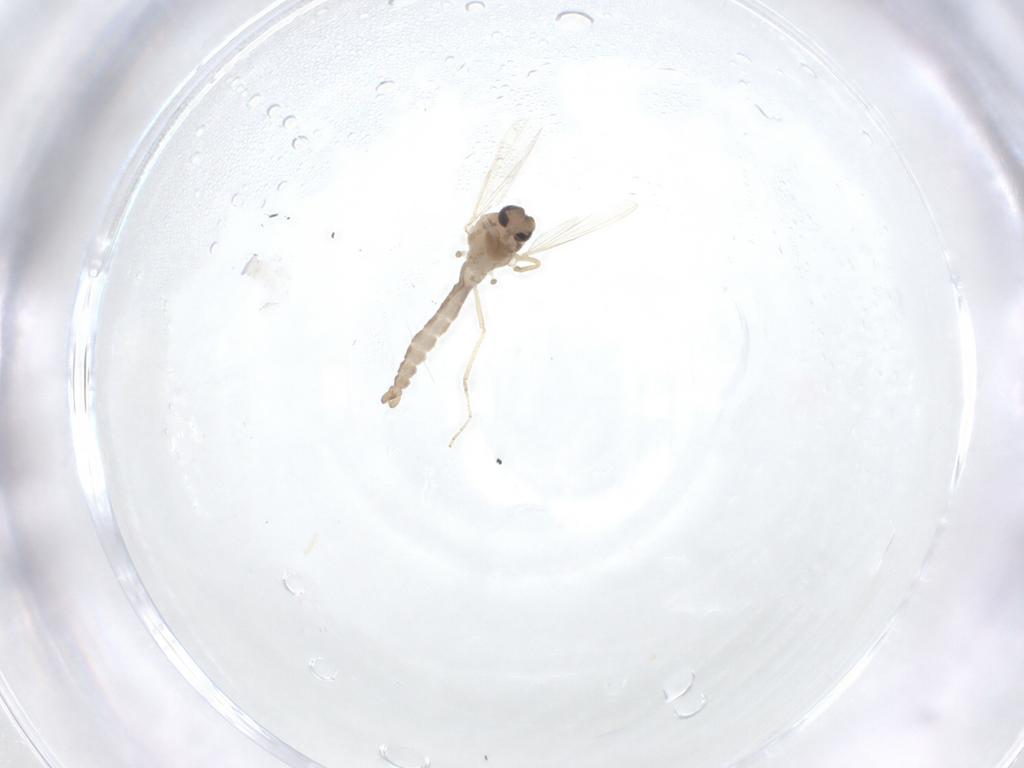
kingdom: Animalia
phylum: Arthropoda
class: Insecta
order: Diptera
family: Ceratopogonidae
